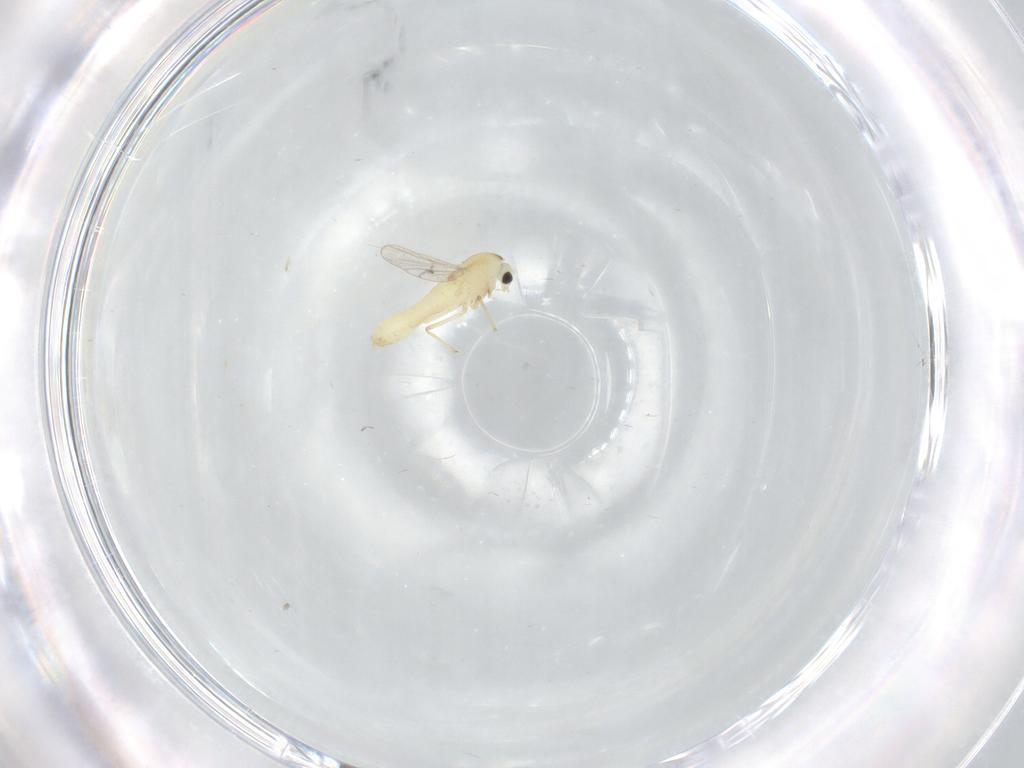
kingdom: Animalia
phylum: Arthropoda
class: Insecta
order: Diptera
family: Chironomidae
